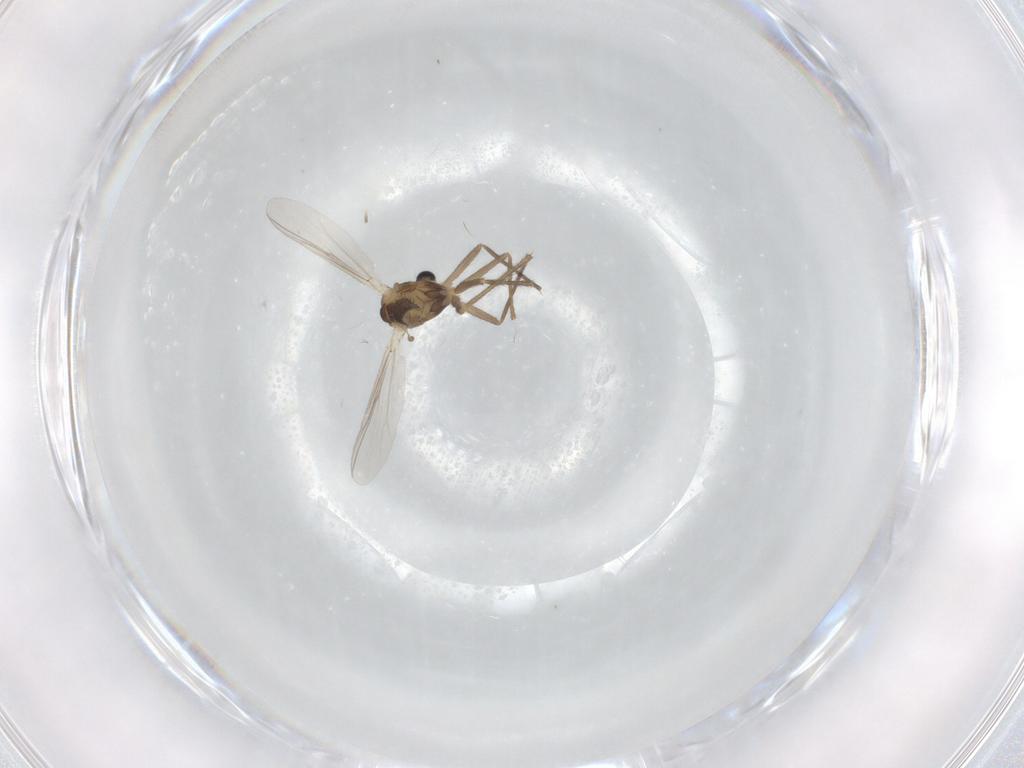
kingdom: Animalia
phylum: Arthropoda
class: Insecta
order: Diptera
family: Chironomidae
